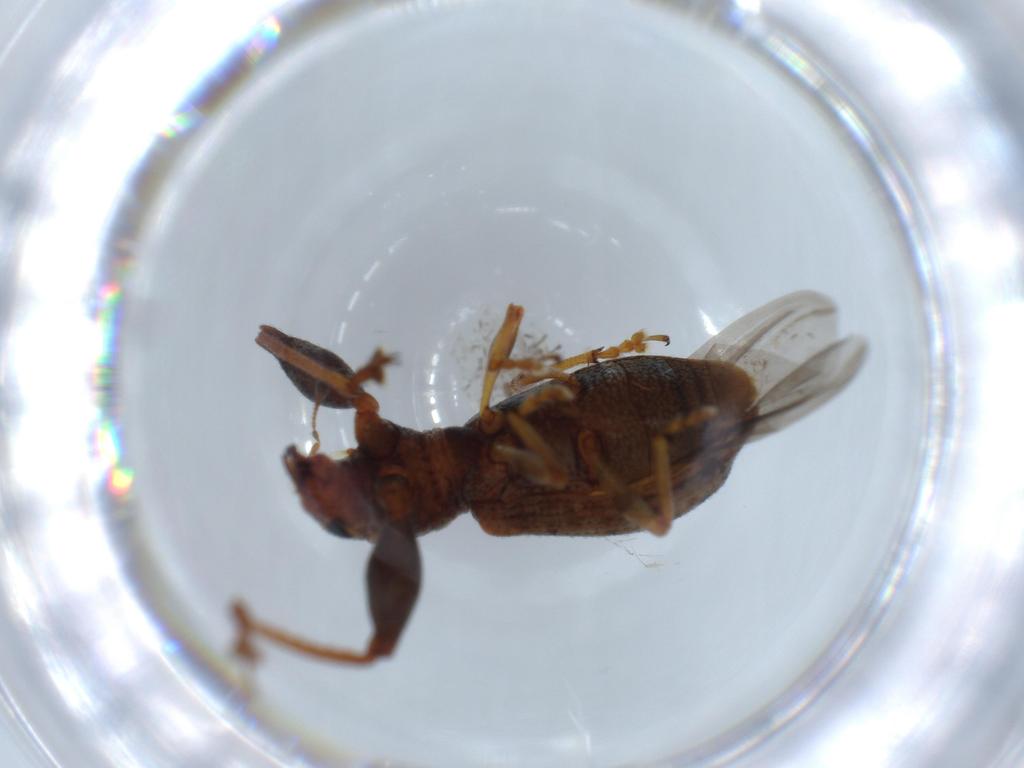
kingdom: Animalia
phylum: Arthropoda
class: Insecta
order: Coleoptera
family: Curculionidae
